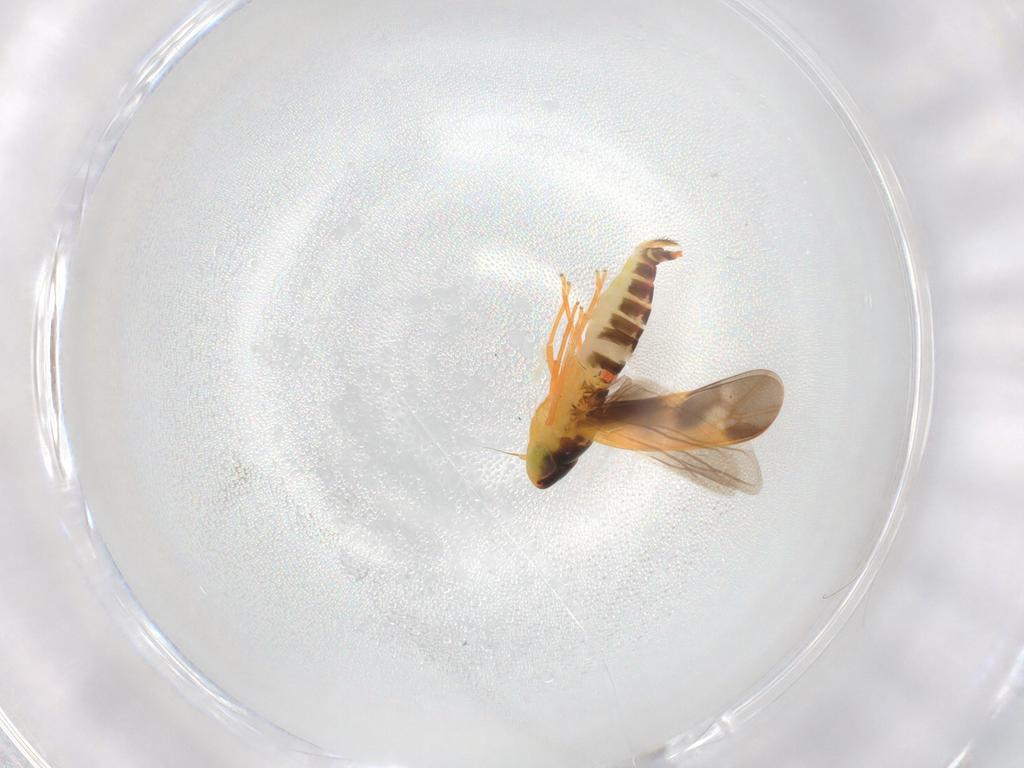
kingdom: Animalia
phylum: Arthropoda
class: Insecta
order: Hemiptera
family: Cicadellidae
